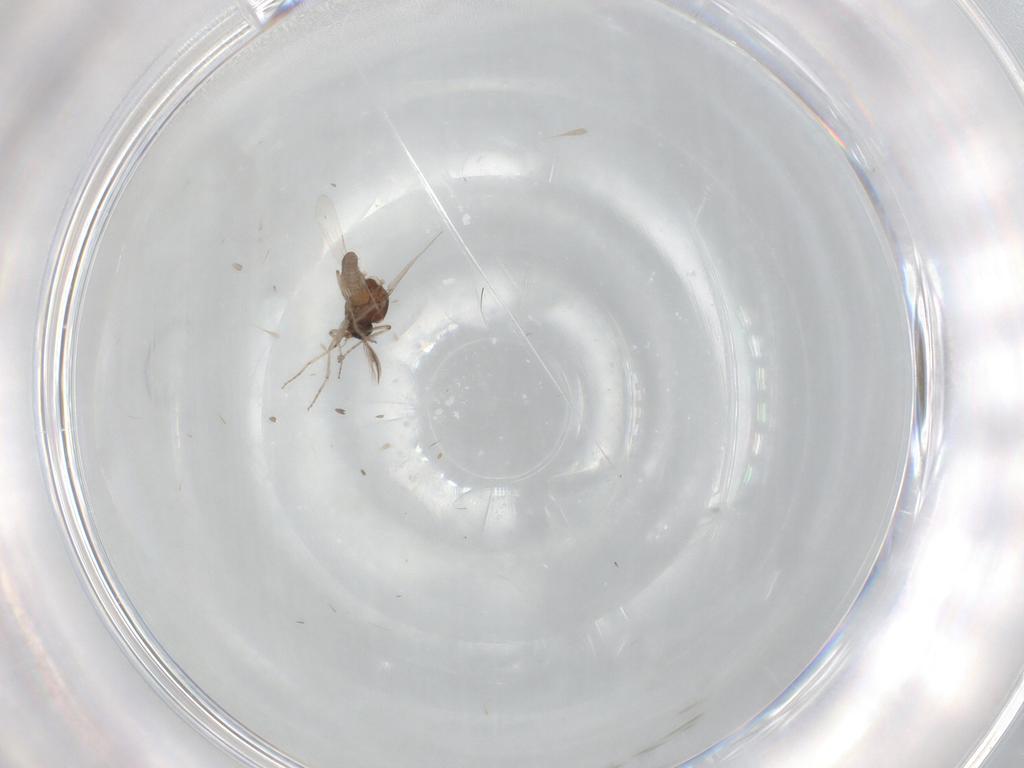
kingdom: Animalia
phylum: Arthropoda
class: Insecta
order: Diptera
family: Ceratopogonidae
